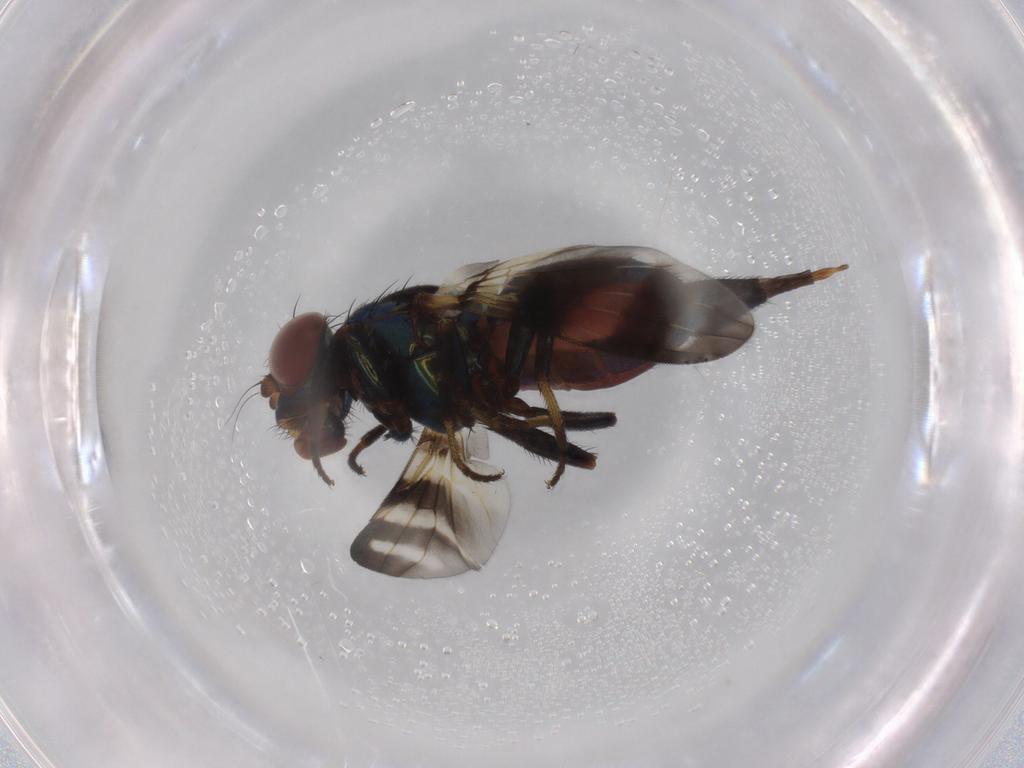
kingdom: Animalia
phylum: Arthropoda
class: Insecta
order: Diptera
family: Ulidiidae
